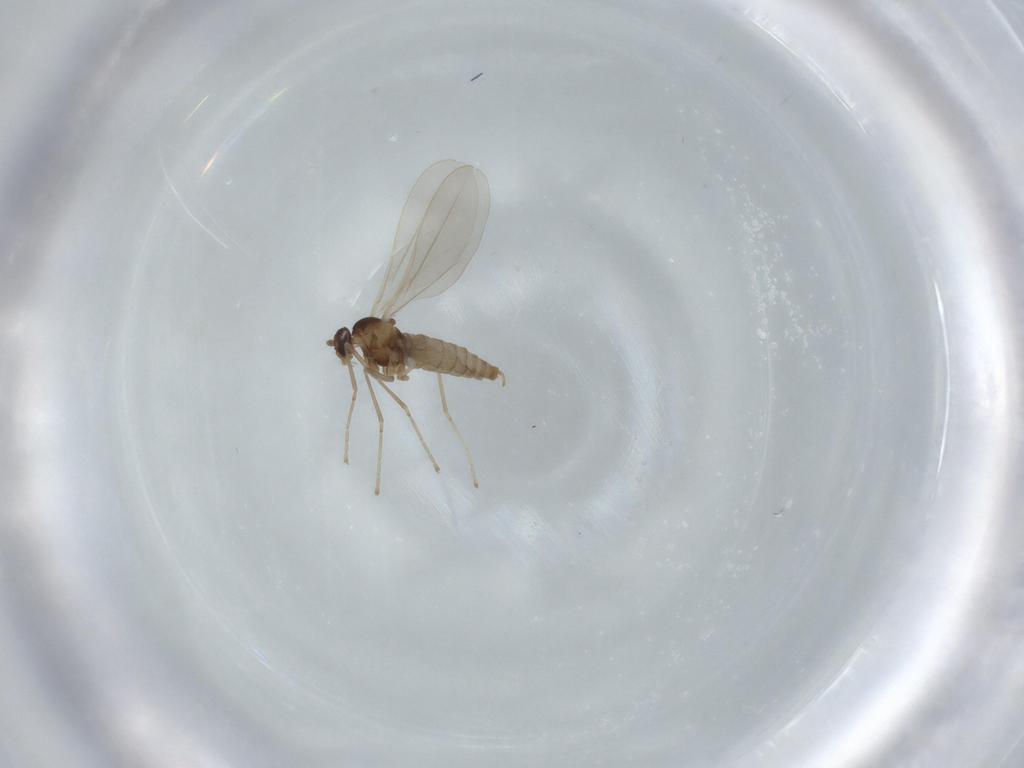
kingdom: Animalia
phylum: Arthropoda
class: Insecta
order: Diptera
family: Cecidomyiidae
